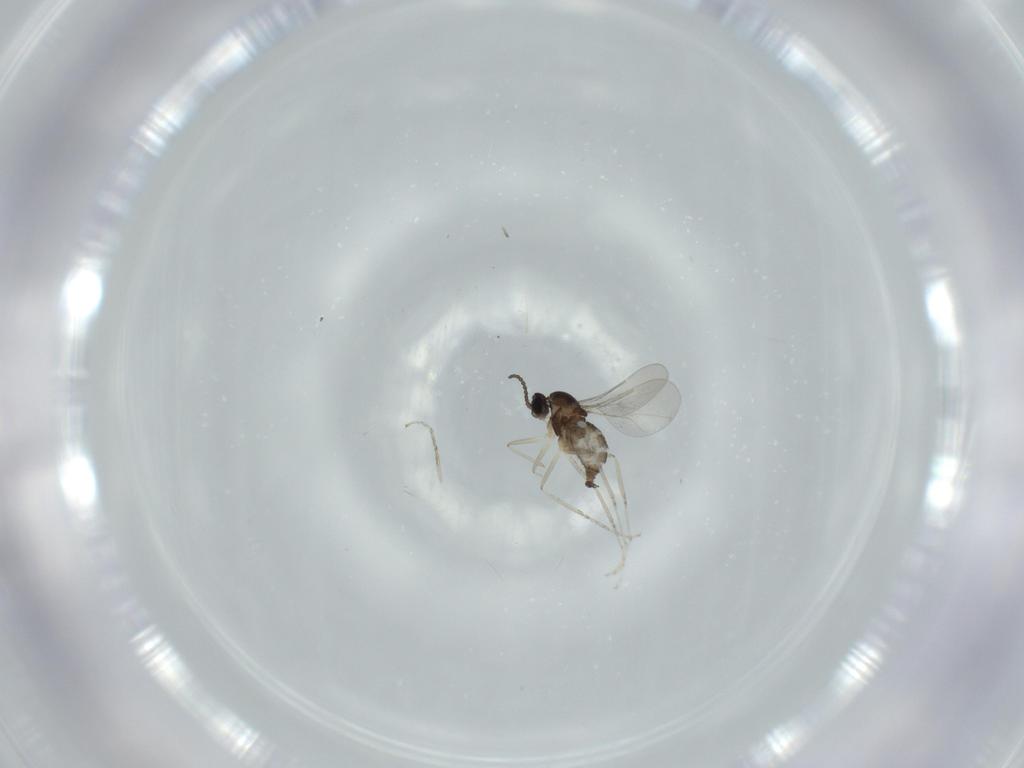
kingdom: Animalia
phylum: Arthropoda
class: Insecta
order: Diptera
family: Cecidomyiidae
